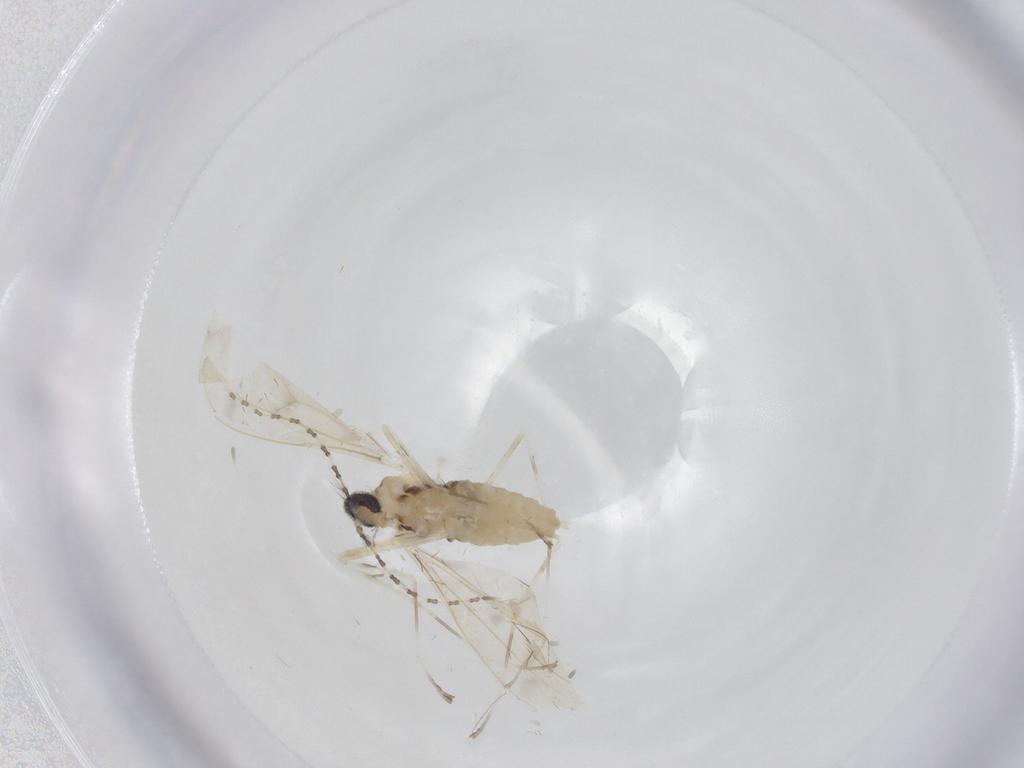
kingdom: Animalia
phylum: Arthropoda
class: Insecta
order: Diptera
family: Cecidomyiidae
